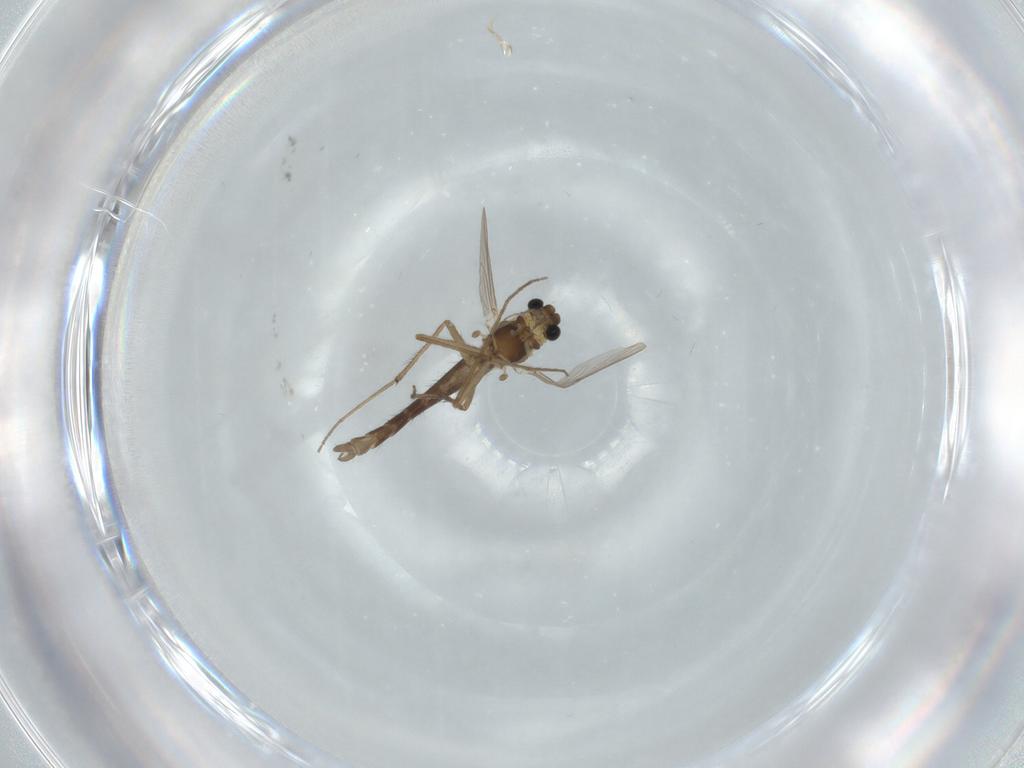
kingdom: Animalia
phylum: Arthropoda
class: Insecta
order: Diptera
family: Chironomidae
